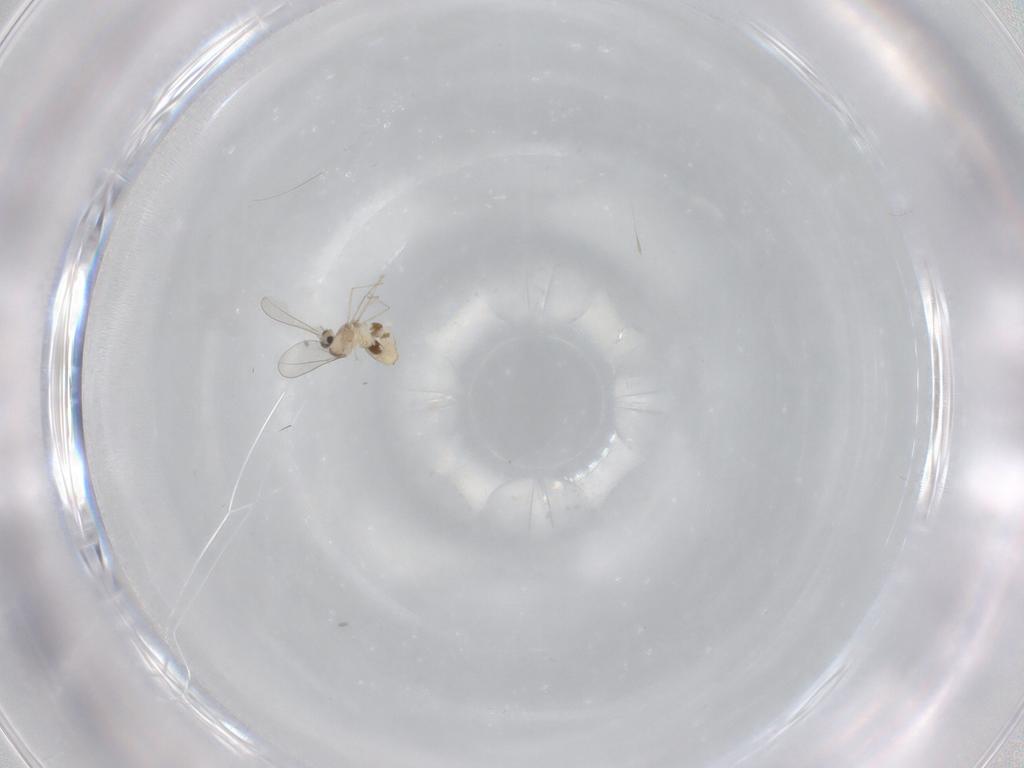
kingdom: Animalia
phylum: Arthropoda
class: Insecta
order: Diptera
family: Cecidomyiidae
